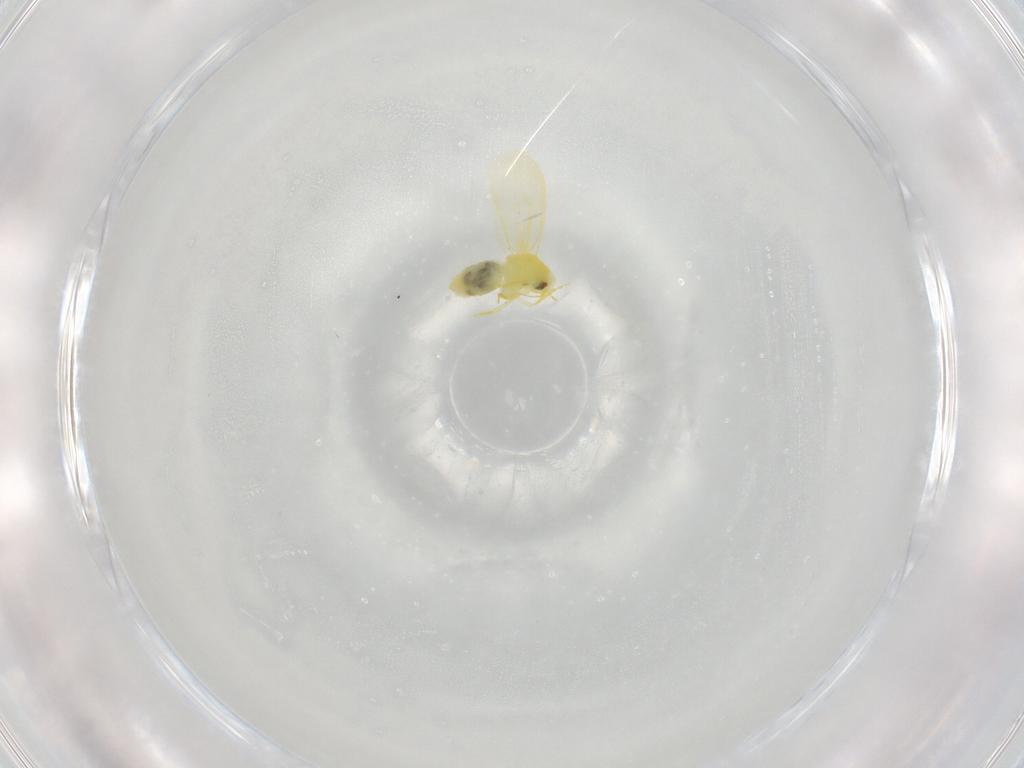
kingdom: Animalia
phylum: Arthropoda
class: Insecta
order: Hemiptera
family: Aleyrodidae
